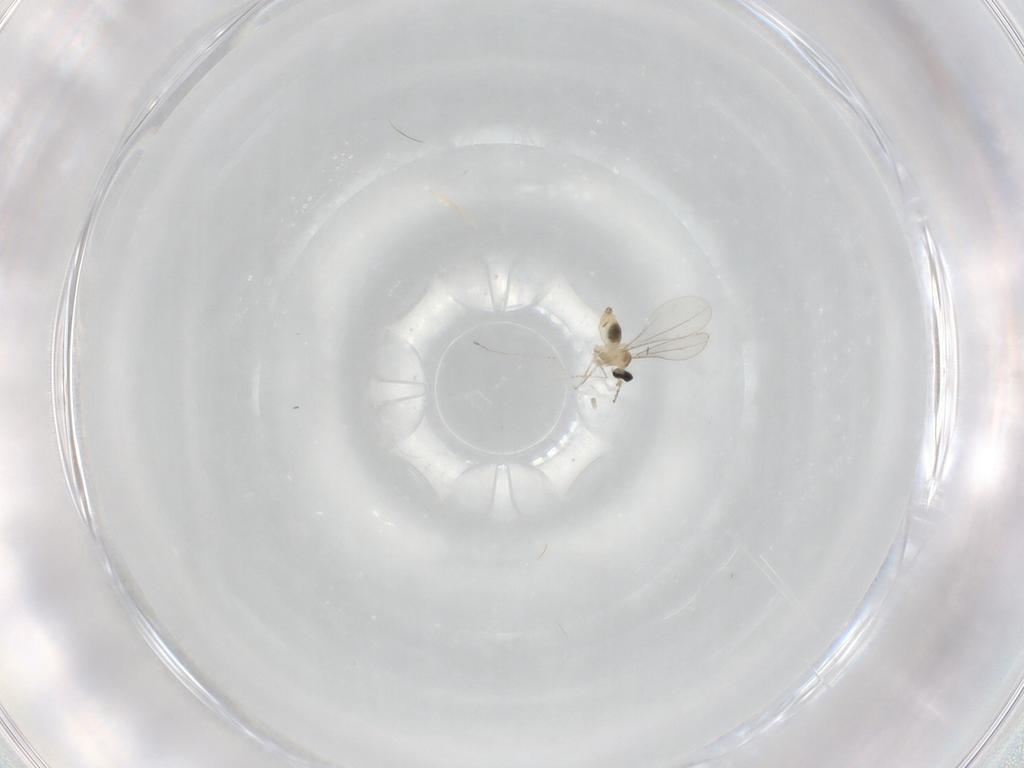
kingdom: Animalia
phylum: Arthropoda
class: Insecta
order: Diptera
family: Cecidomyiidae
